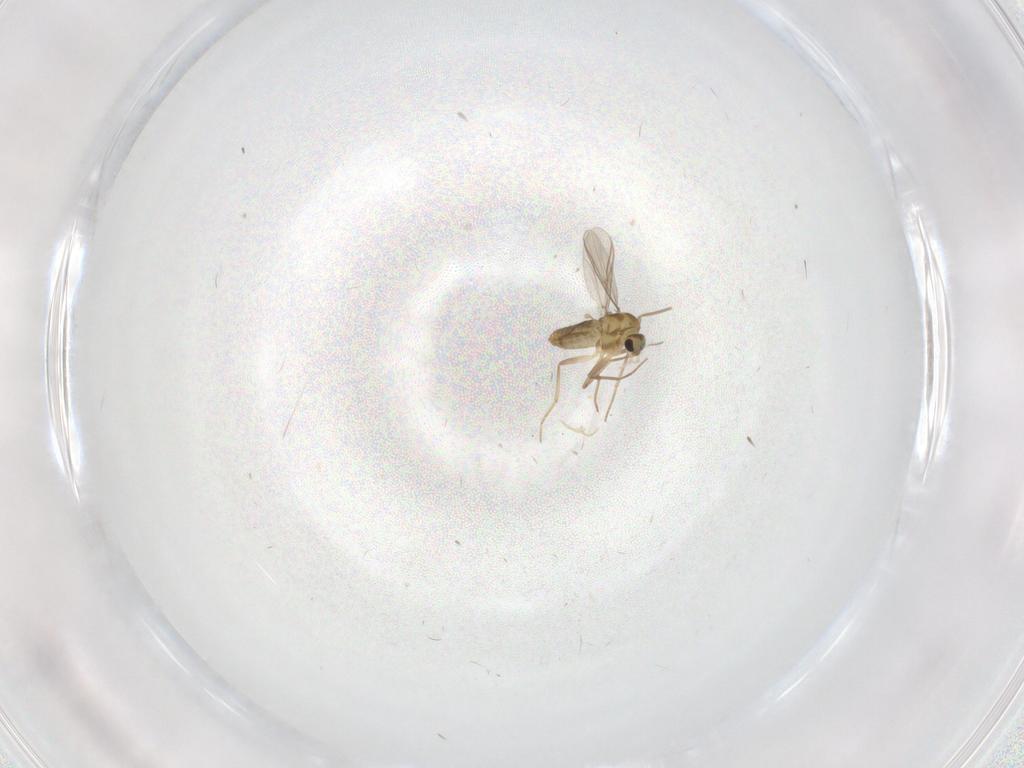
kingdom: Animalia
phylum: Arthropoda
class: Insecta
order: Diptera
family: Chironomidae
